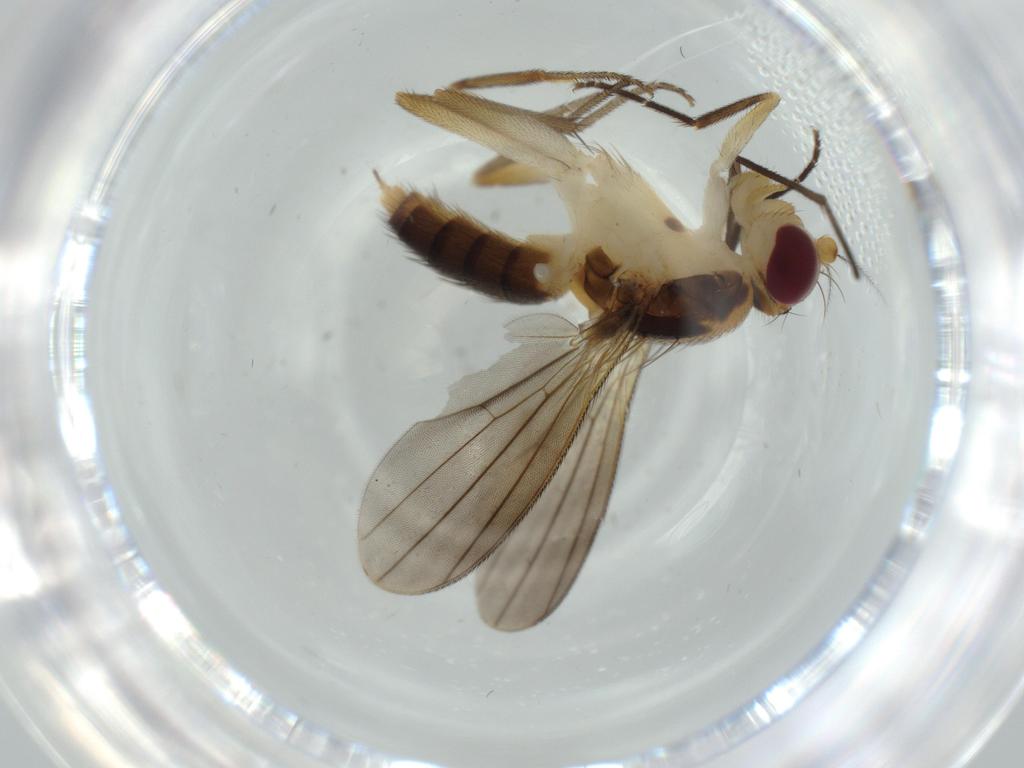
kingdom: Animalia
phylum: Arthropoda
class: Insecta
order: Diptera
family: Clusiidae
